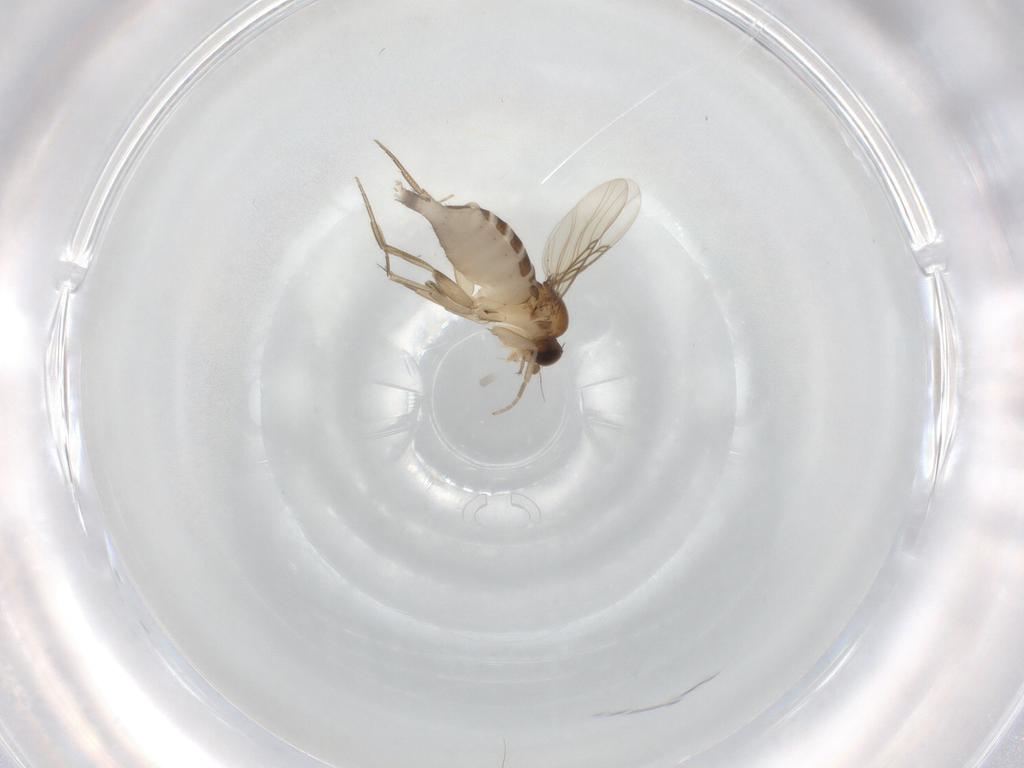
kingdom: Animalia
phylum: Arthropoda
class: Insecta
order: Diptera
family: Phoridae
